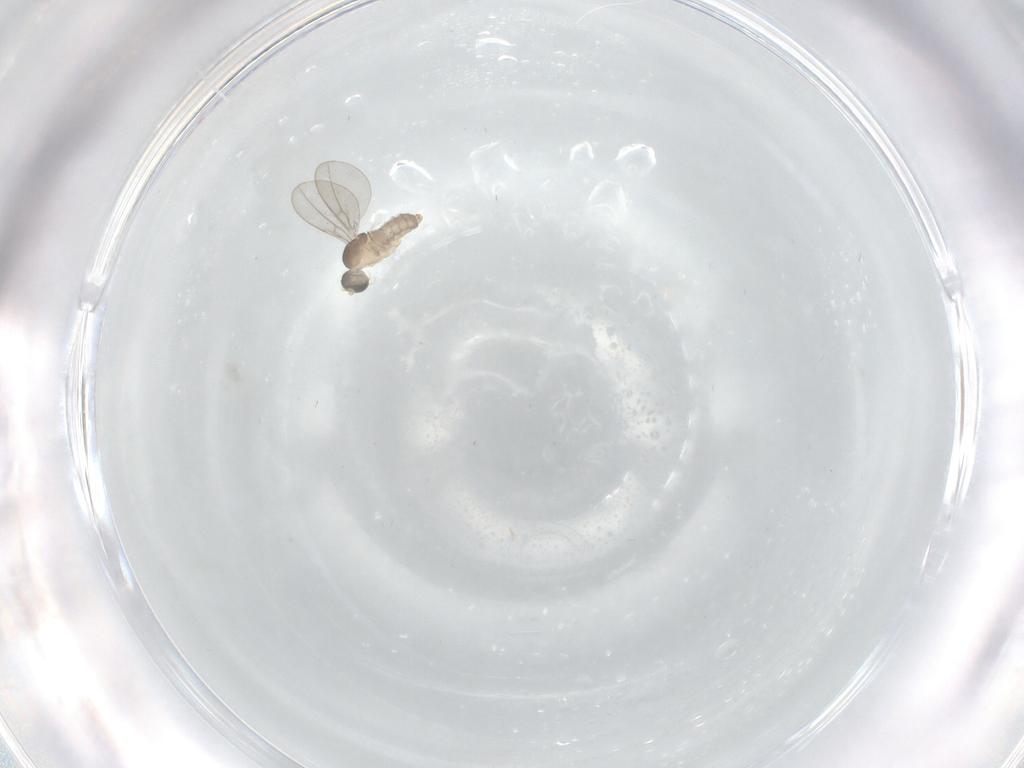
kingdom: Animalia
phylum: Arthropoda
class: Insecta
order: Diptera
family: Cecidomyiidae
